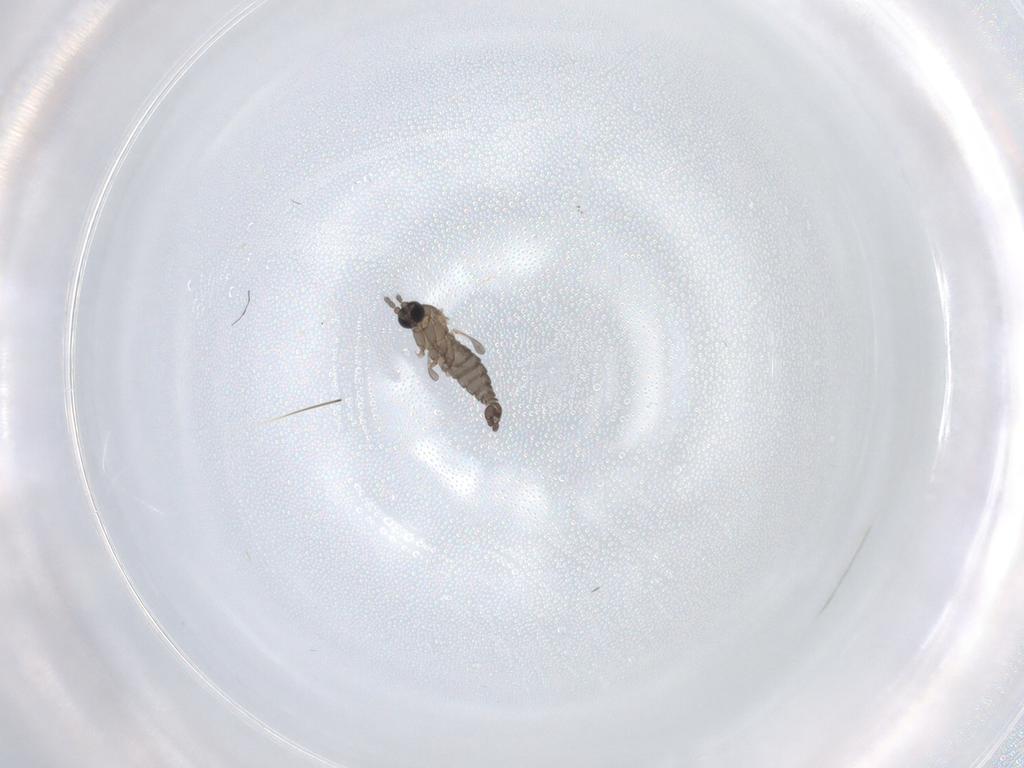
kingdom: Animalia
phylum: Arthropoda
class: Insecta
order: Diptera
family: Sciaridae
